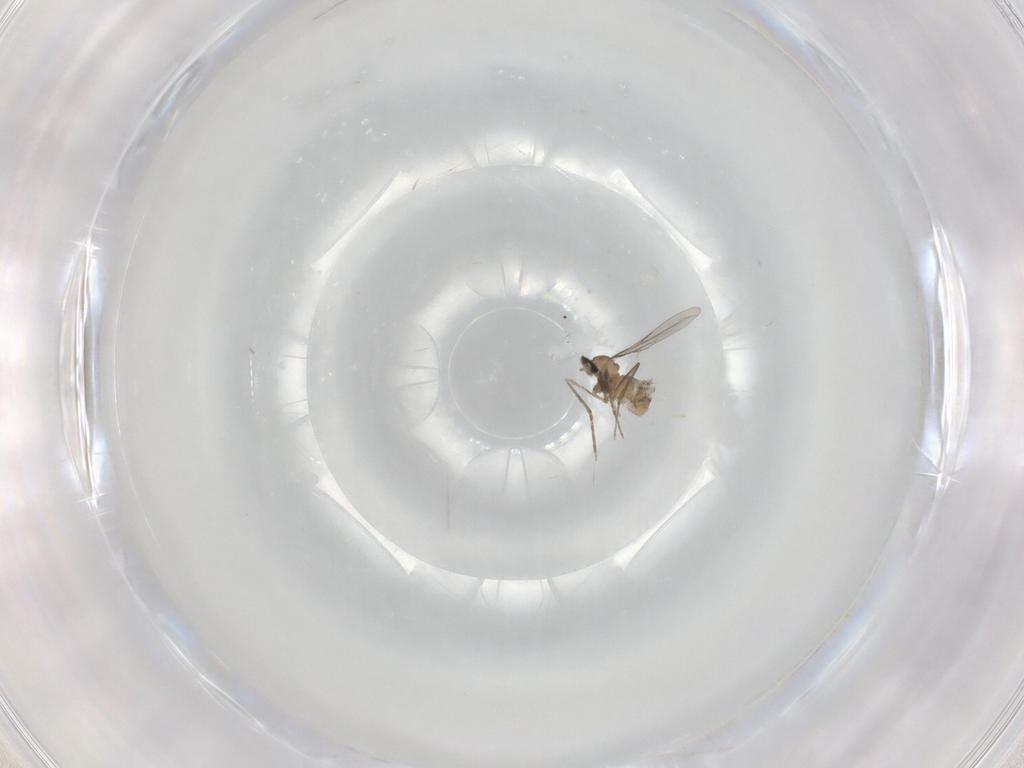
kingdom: Animalia
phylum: Arthropoda
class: Insecta
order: Diptera
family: Cecidomyiidae
